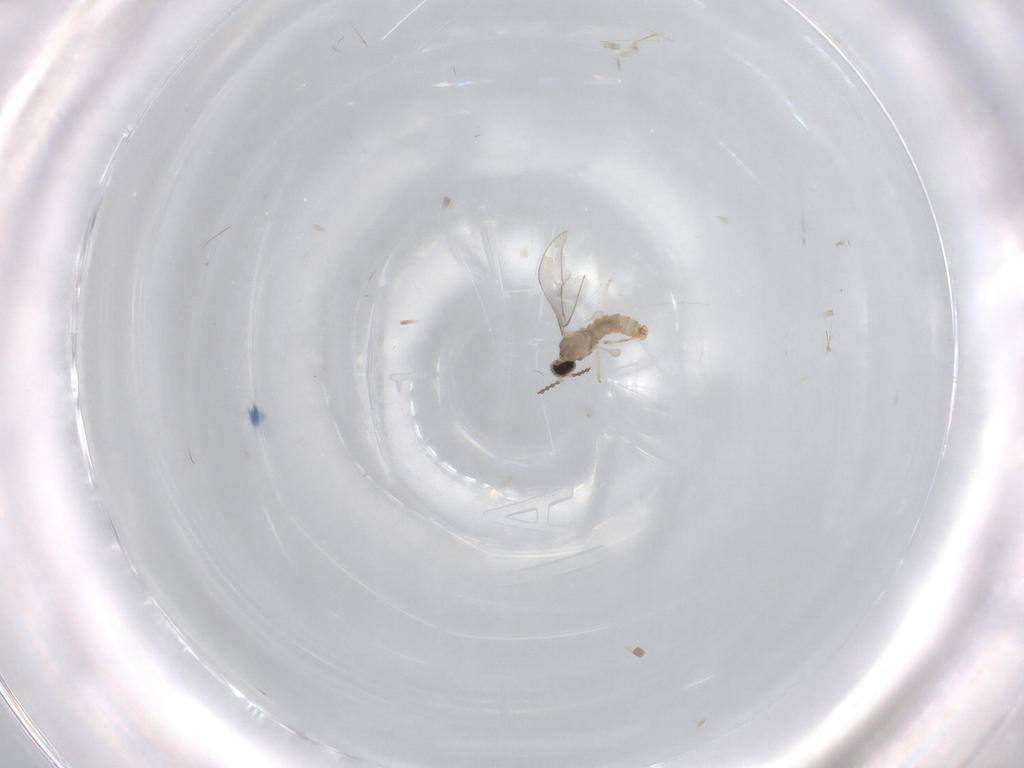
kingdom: Animalia
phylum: Arthropoda
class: Insecta
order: Diptera
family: Cecidomyiidae
